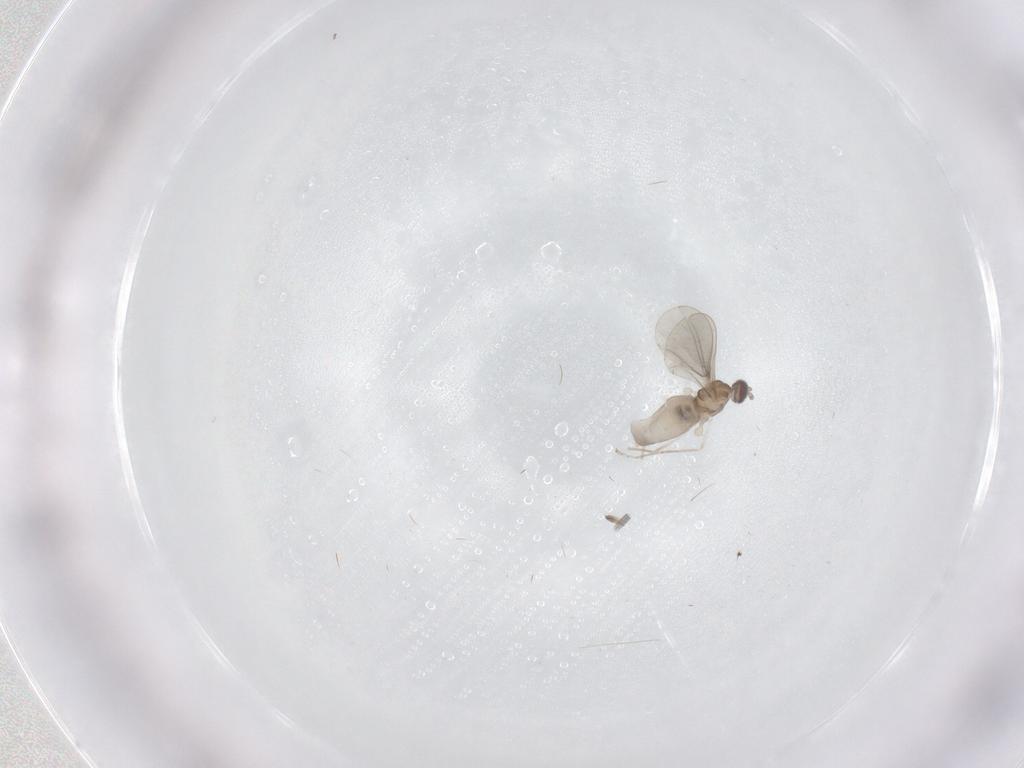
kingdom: Animalia
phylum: Arthropoda
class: Insecta
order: Diptera
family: Cecidomyiidae
